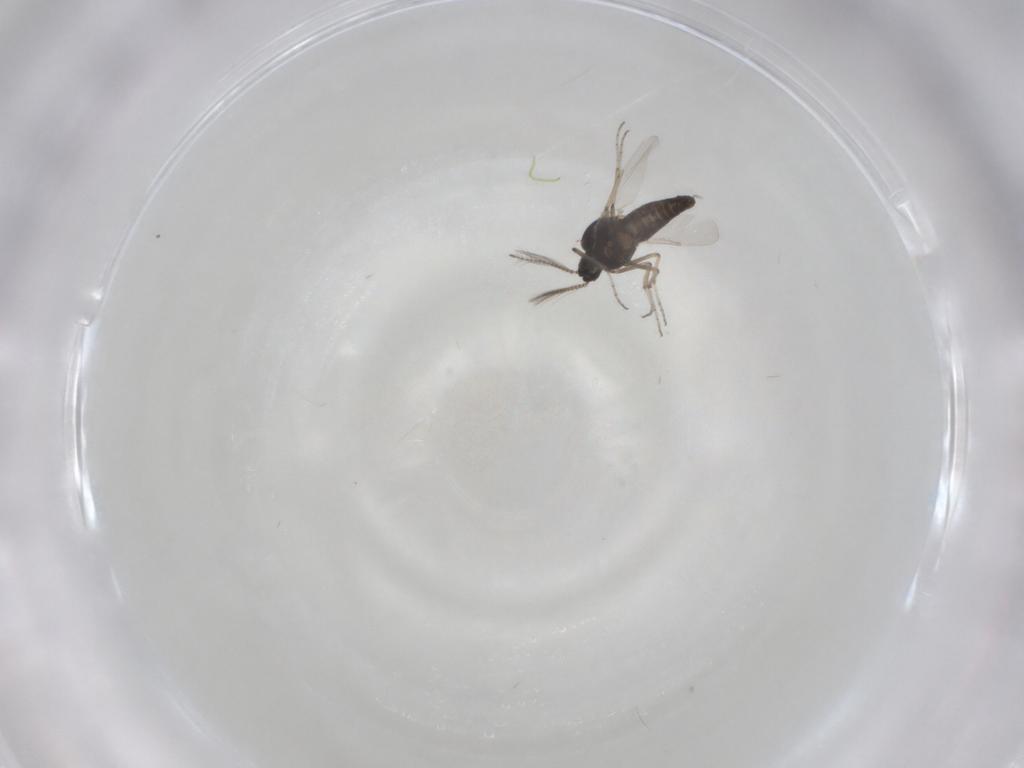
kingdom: Animalia
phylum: Arthropoda
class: Insecta
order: Diptera
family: Ceratopogonidae
